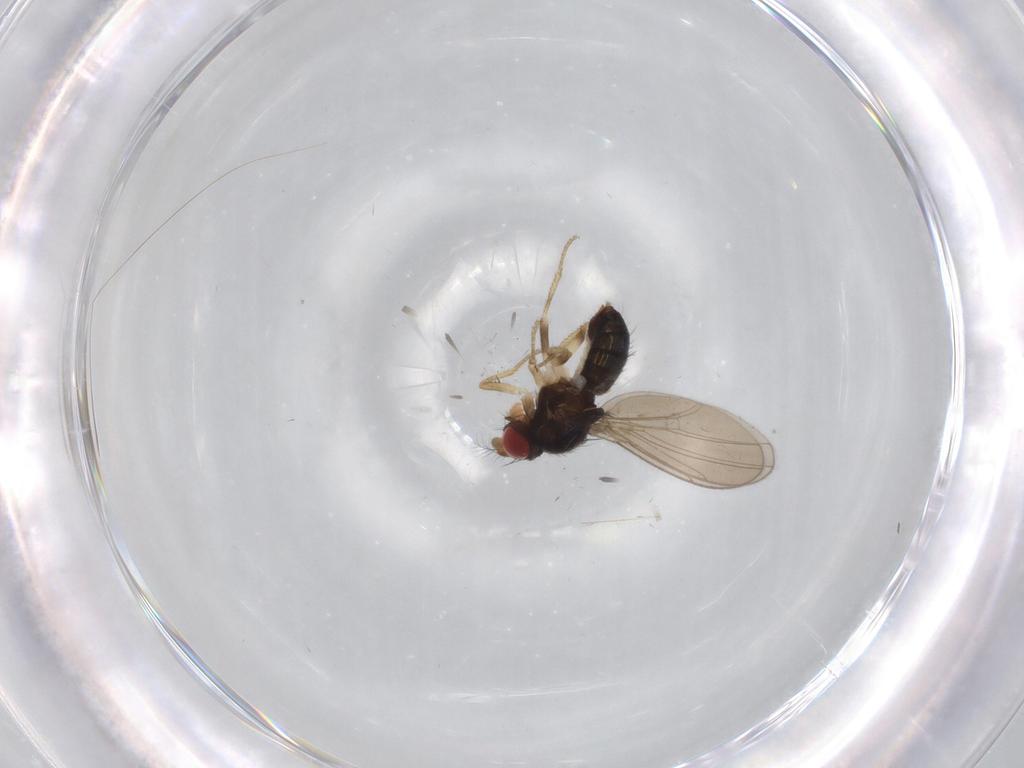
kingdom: Animalia
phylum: Arthropoda
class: Insecta
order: Diptera
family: Drosophilidae
